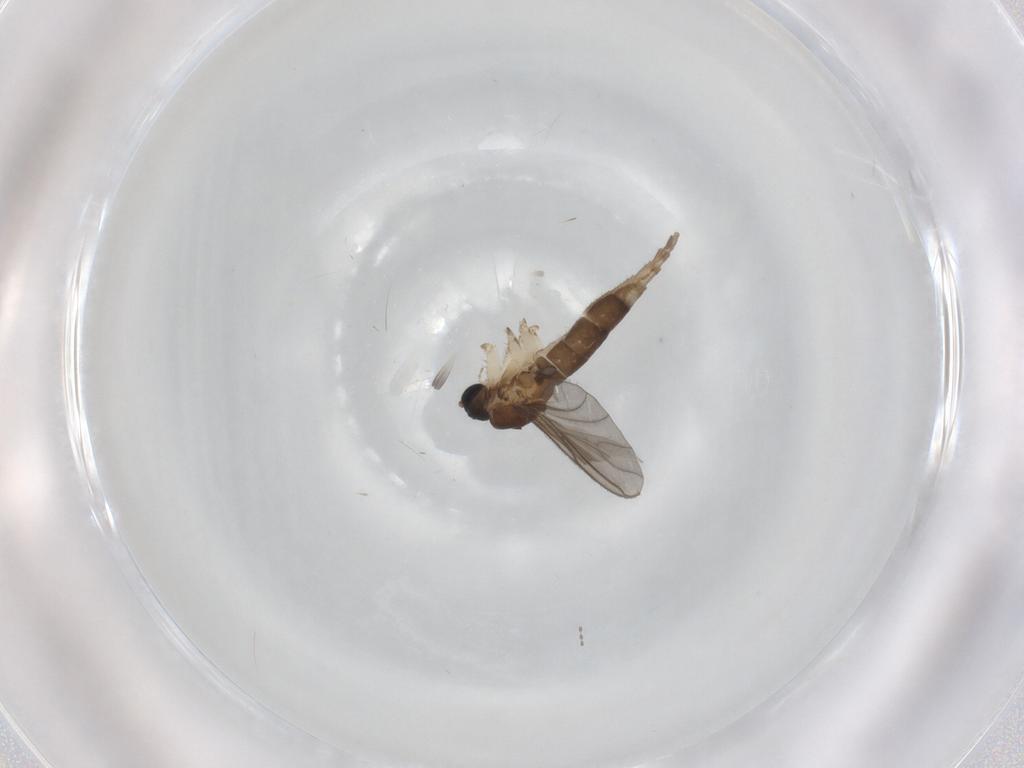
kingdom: Animalia
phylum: Arthropoda
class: Insecta
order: Diptera
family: Sciaridae
